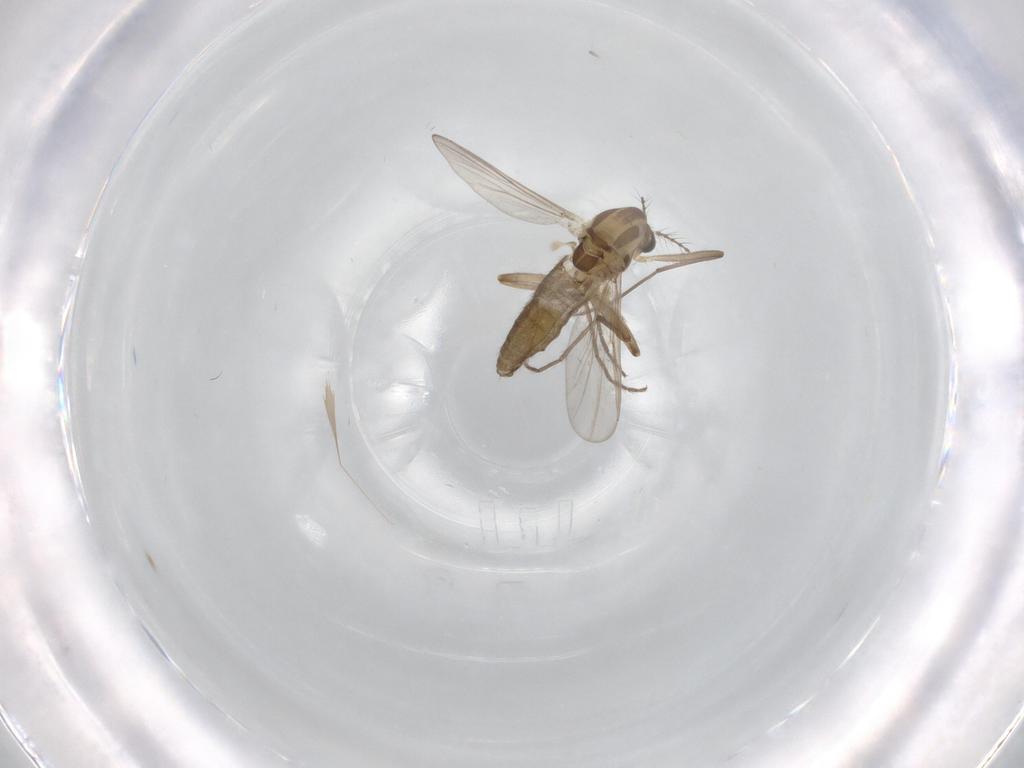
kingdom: Animalia
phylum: Arthropoda
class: Insecta
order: Diptera
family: Chironomidae
